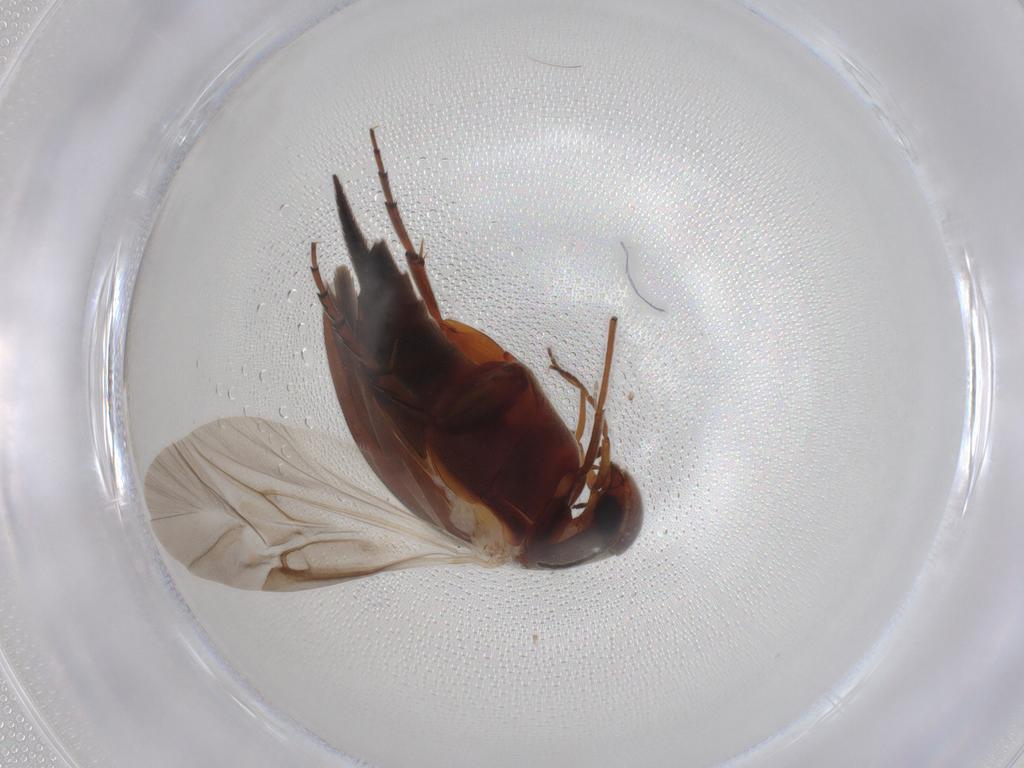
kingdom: Animalia
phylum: Arthropoda
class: Insecta
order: Coleoptera
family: Mordellidae
